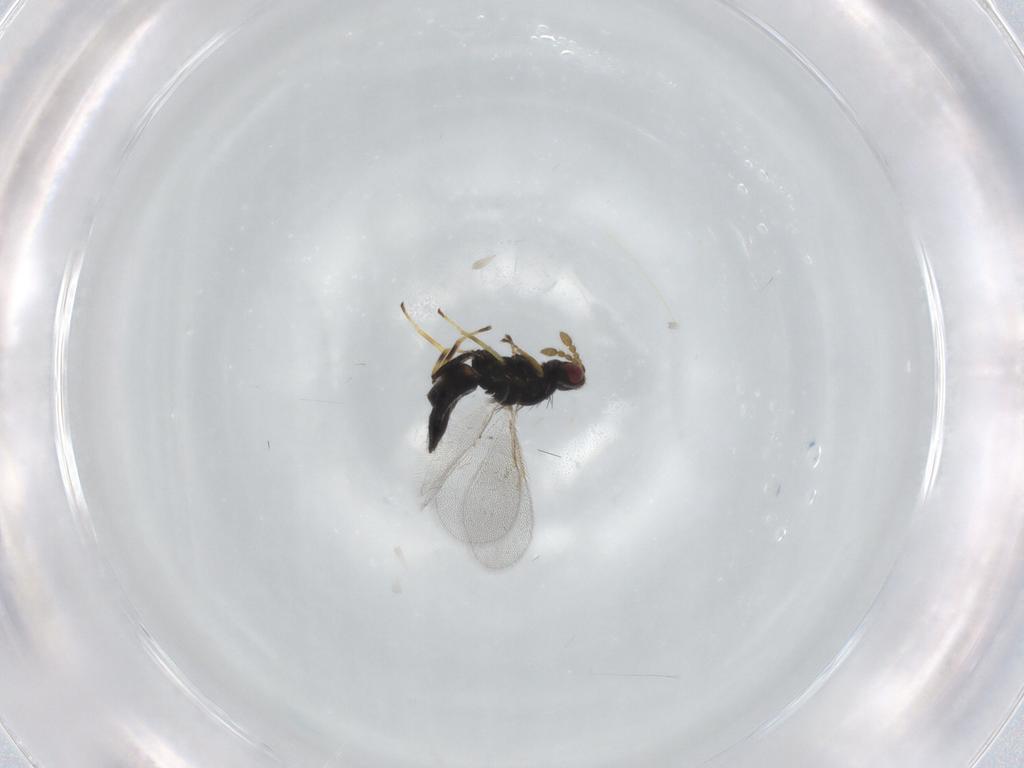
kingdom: Animalia
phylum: Arthropoda
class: Insecta
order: Hymenoptera
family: Eulophidae
